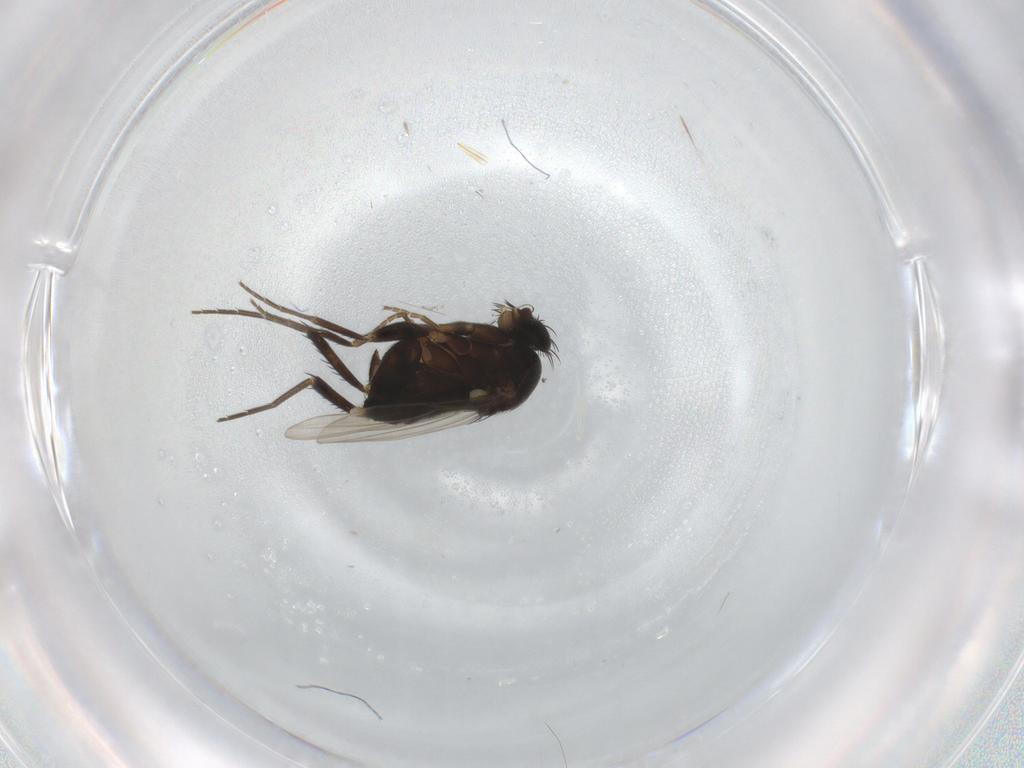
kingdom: Animalia
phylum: Arthropoda
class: Insecta
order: Diptera
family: Phoridae
